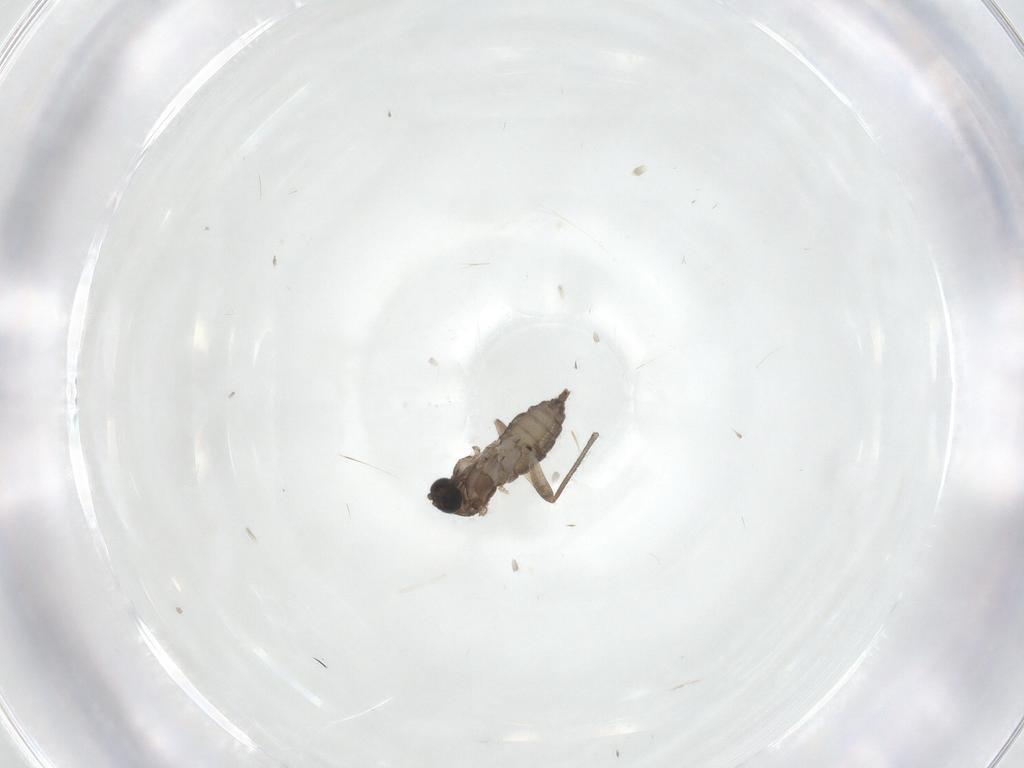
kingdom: Animalia
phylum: Arthropoda
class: Insecta
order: Diptera
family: Sciaridae
